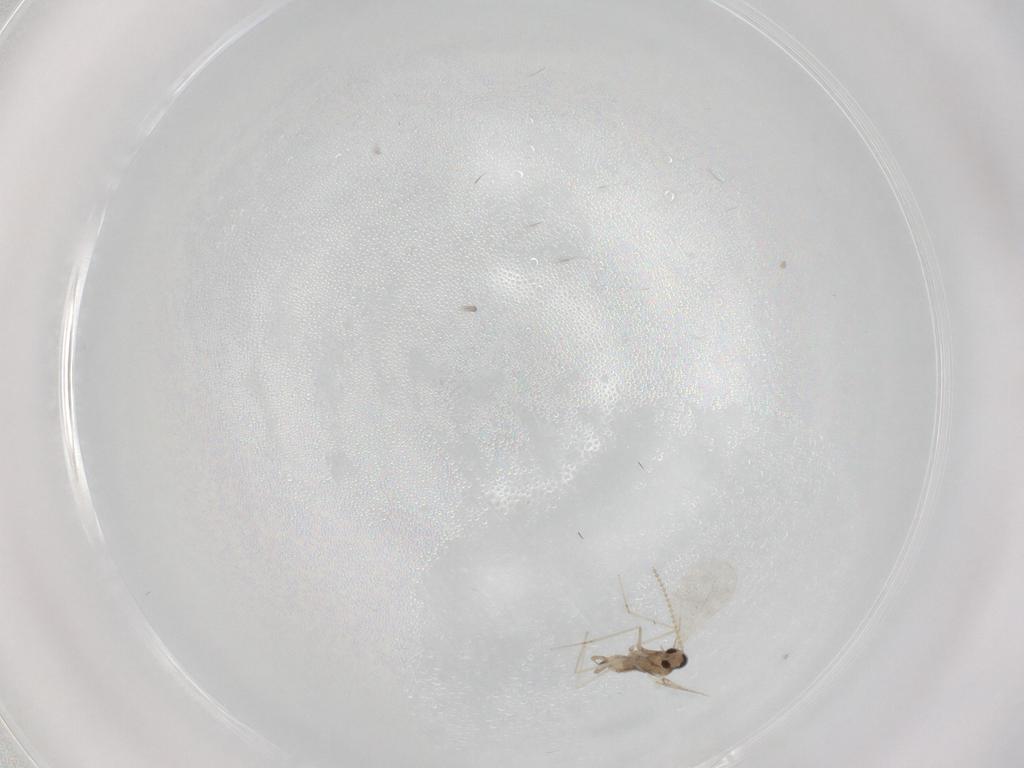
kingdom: Animalia
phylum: Arthropoda
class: Insecta
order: Diptera
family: Cecidomyiidae
